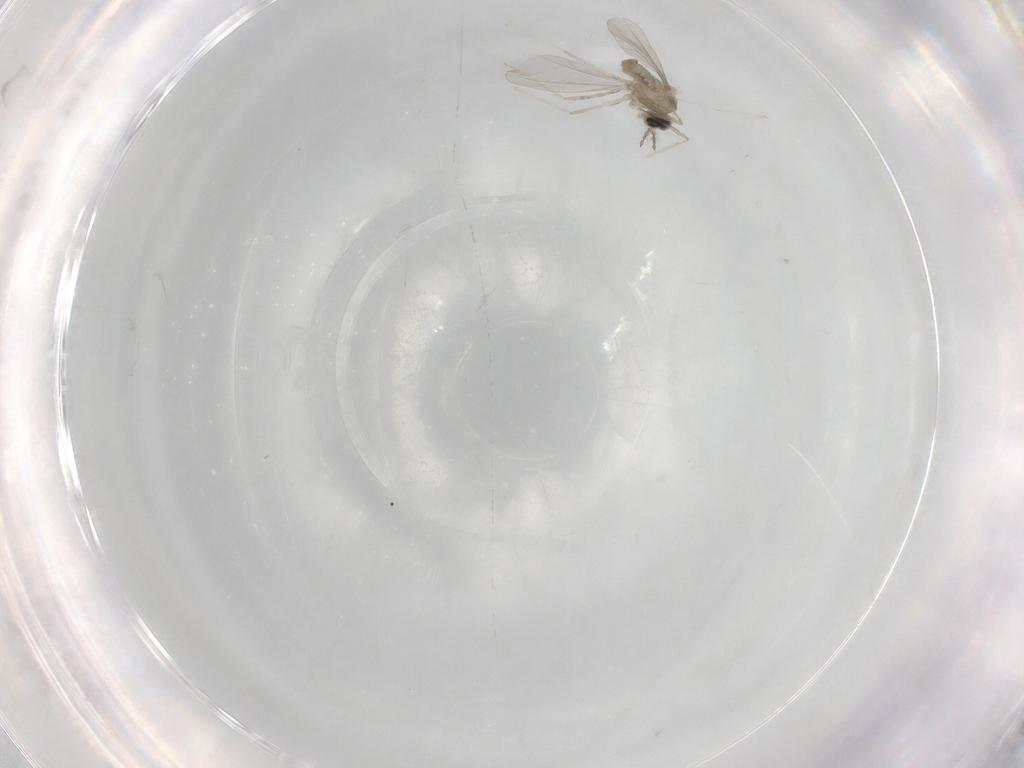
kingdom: Animalia
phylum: Arthropoda
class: Insecta
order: Diptera
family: Cecidomyiidae
